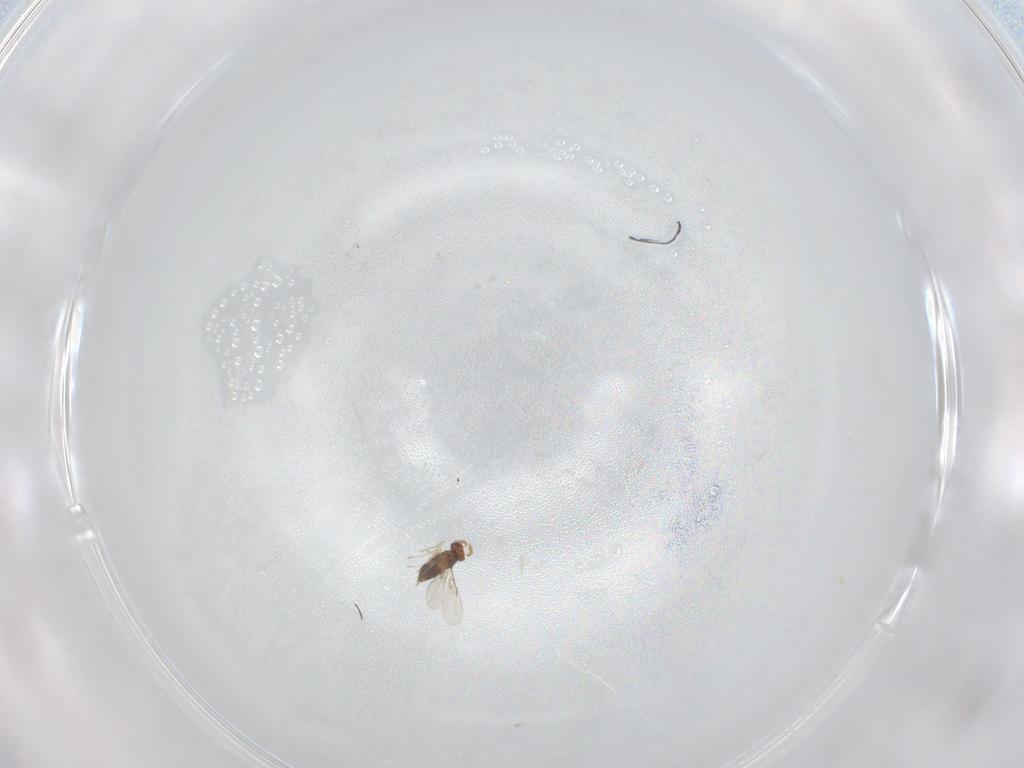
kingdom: Animalia
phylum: Arthropoda
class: Insecta
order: Hymenoptera
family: Trichogrammatidae
